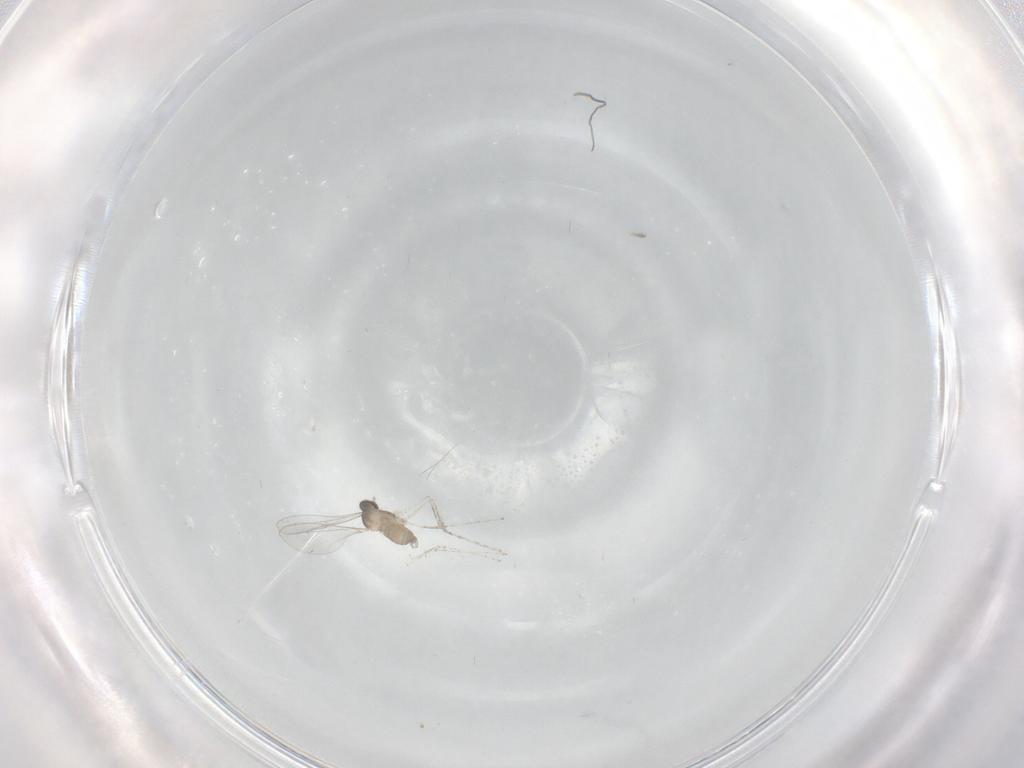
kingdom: Animalia
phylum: Arthropoda
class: Insecta
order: Diptera
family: Cecidomyiidae
